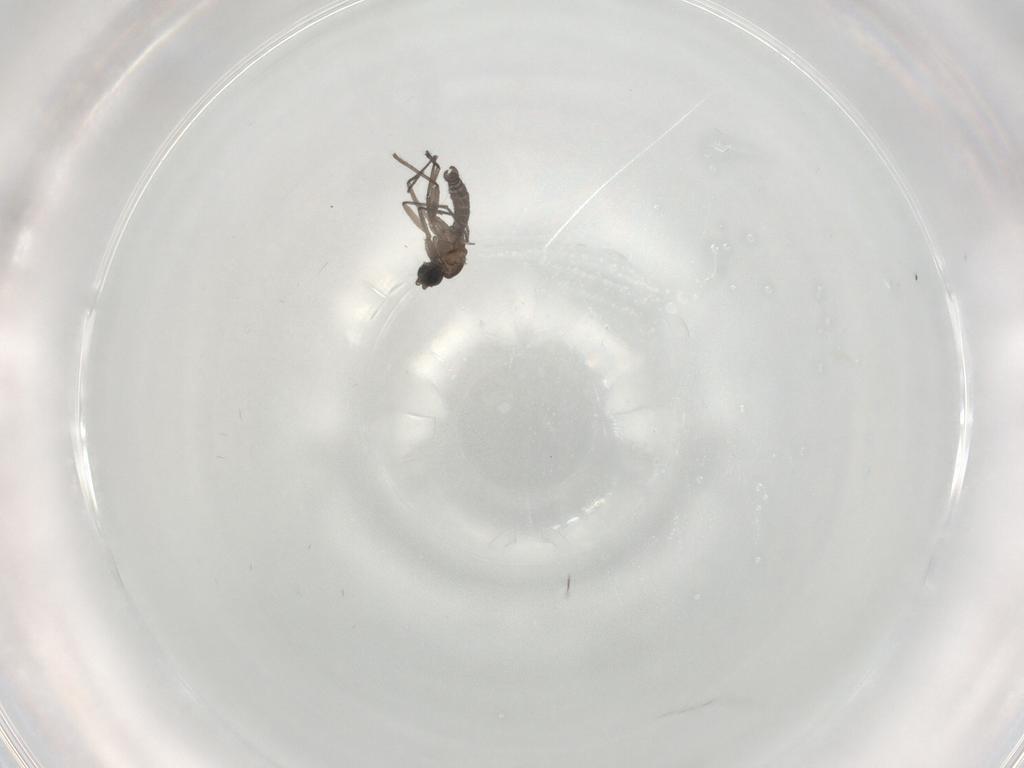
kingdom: Animalia
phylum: Arthropoda
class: Insecta
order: Diptera
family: Sciaridae
